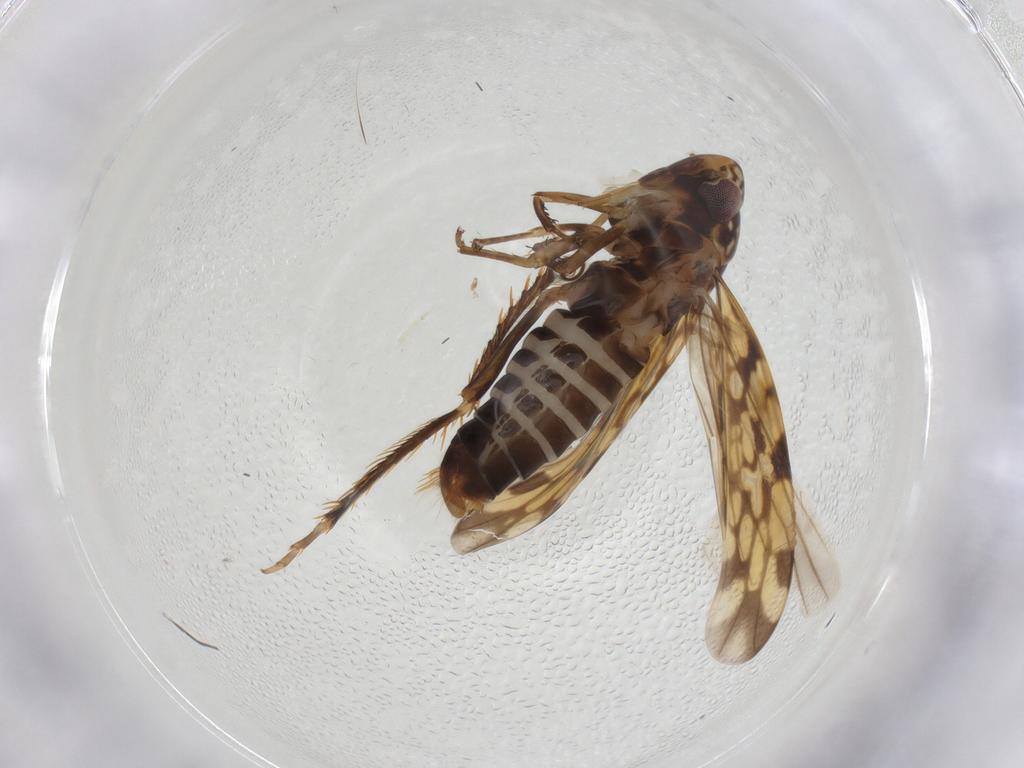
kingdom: Animalia
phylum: Arthropoda
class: Insecta
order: Hemiptera
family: Cicadellidae
